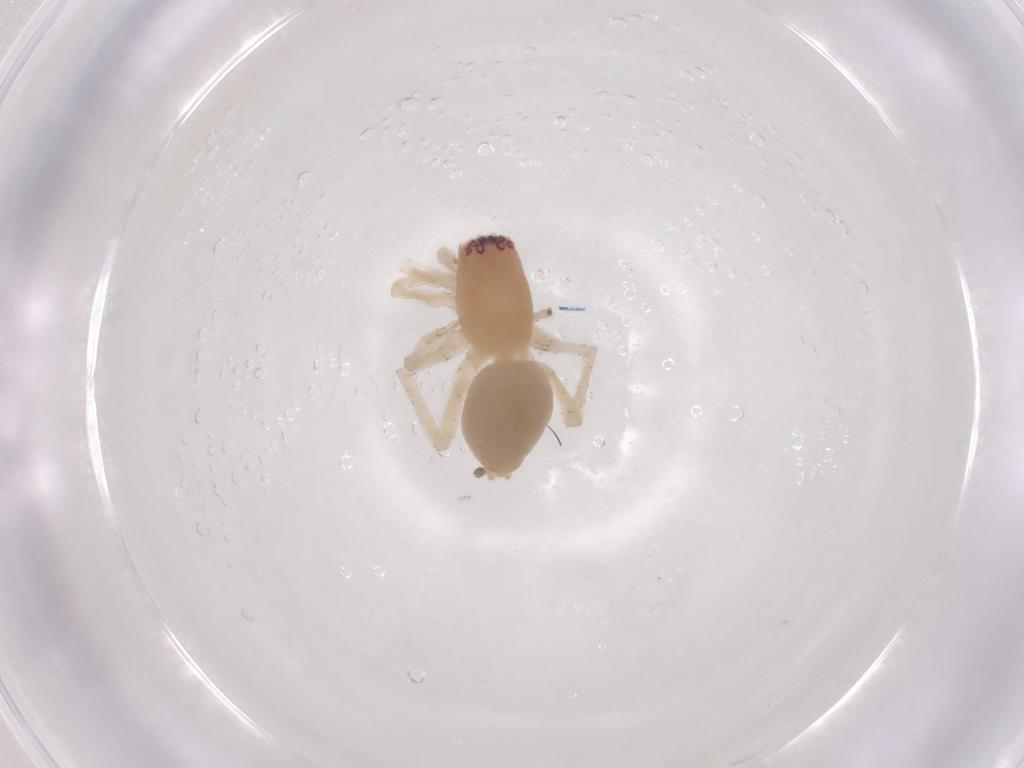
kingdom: Animalia
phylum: Arthropoda
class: Arachnida
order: Araneae
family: Clubionidae
